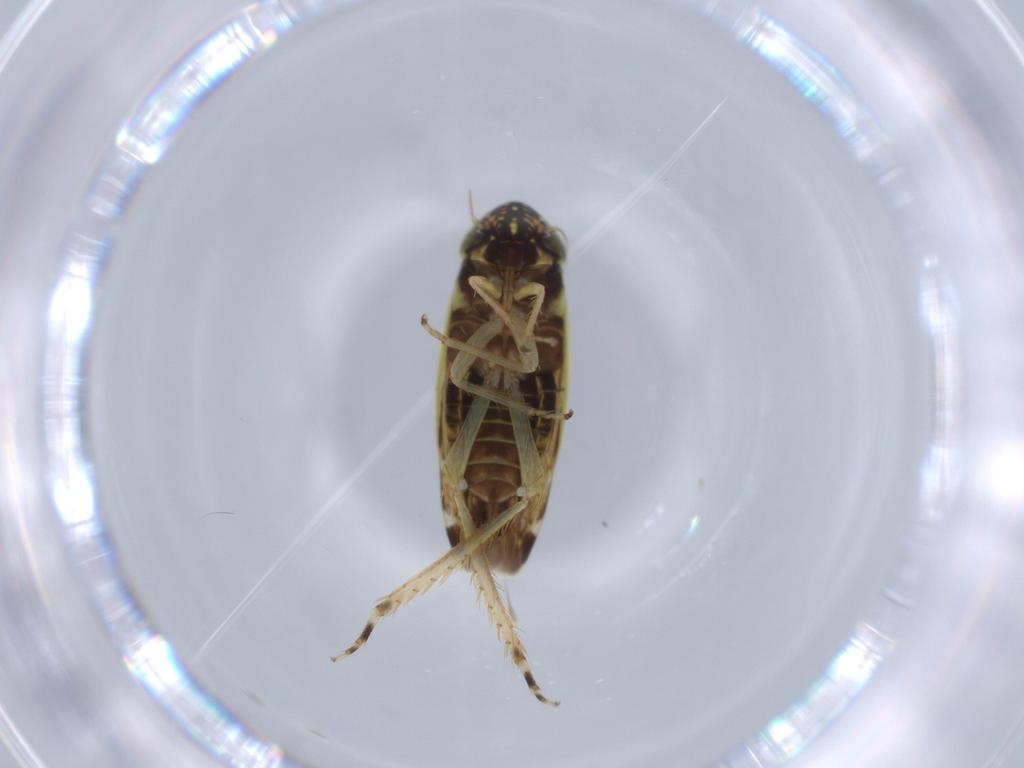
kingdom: Animalia
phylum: Arthropoda
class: Insecta
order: Hemiptera
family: Cicadellidae
